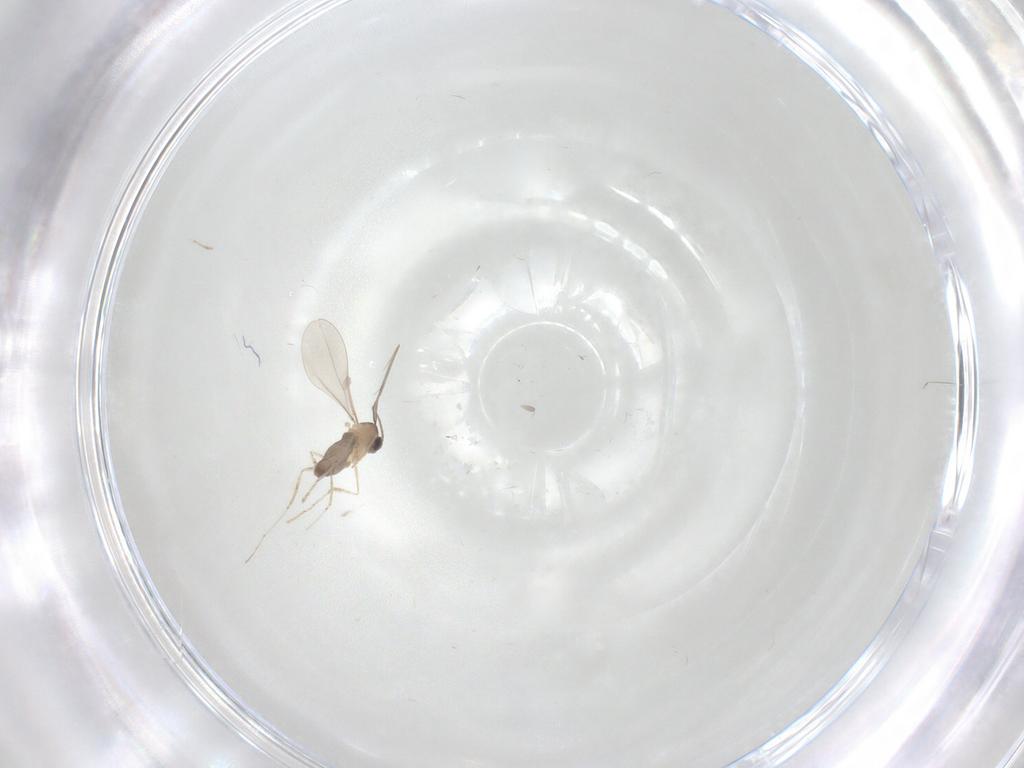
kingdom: Animalia
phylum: Arthropoda
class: Insecta
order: Diptera
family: Cecidomyiidae
